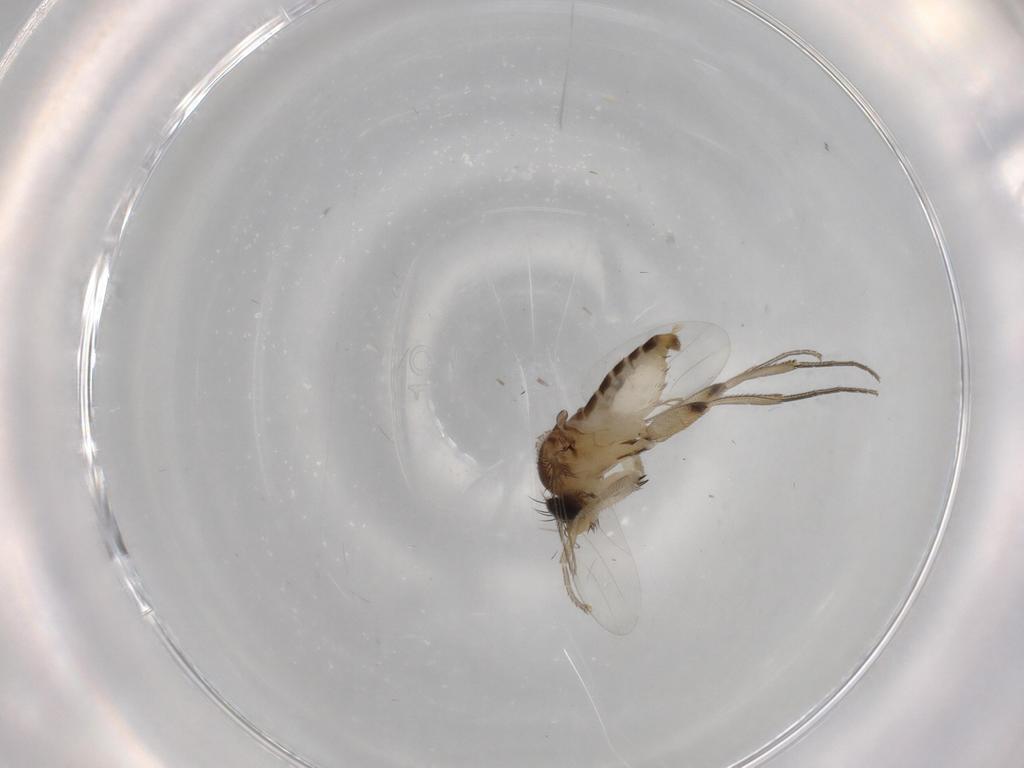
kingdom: Animalia
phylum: Arthropoda
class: Insecta
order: Diptera
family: Phoridae
